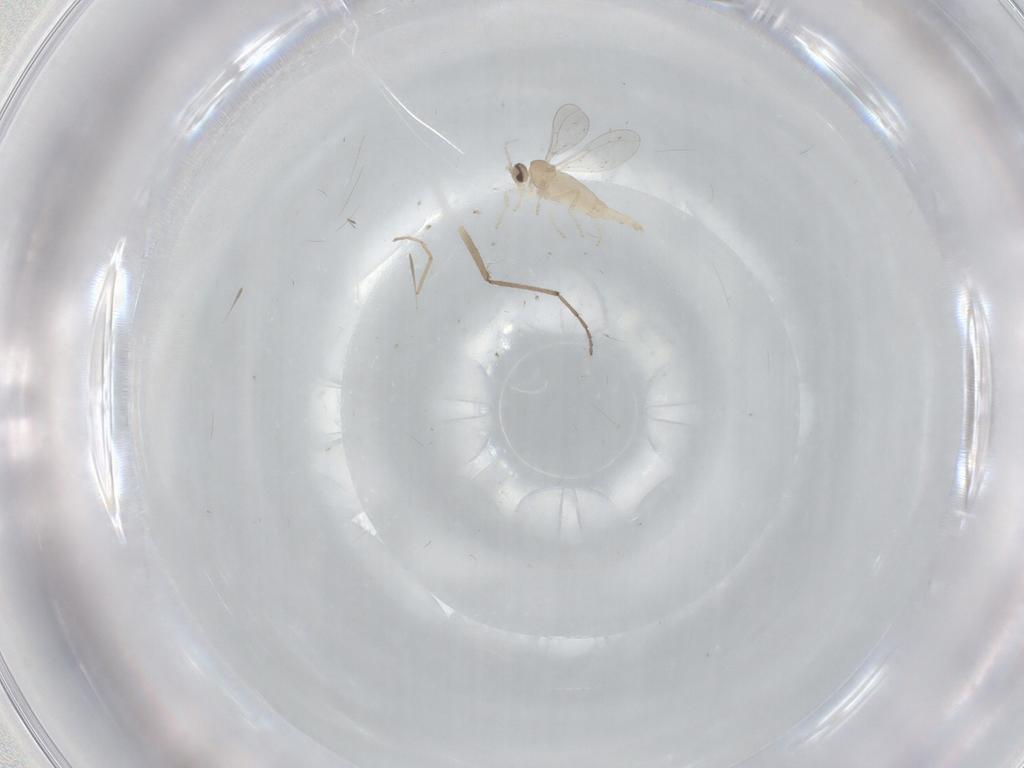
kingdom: Animalia
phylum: Arthropoda
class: Insecta
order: Diptera
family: Cecidomyiidae
